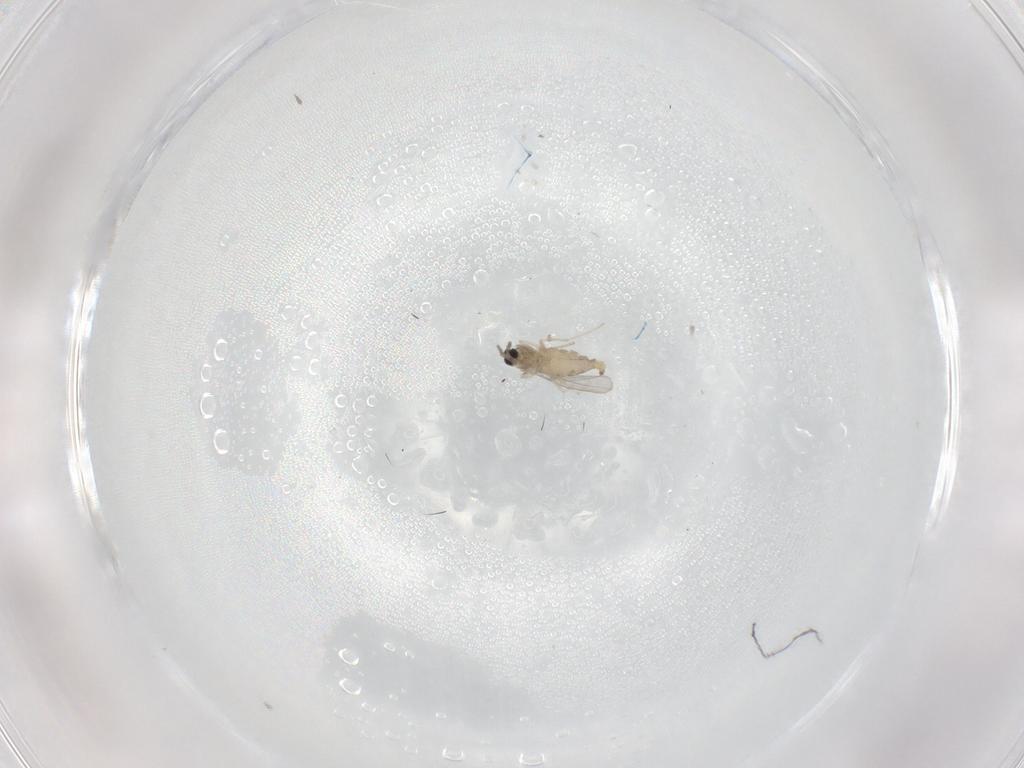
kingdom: Animalia
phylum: Arthropoda
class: Insecta
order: Diptera
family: Cecidomyiidae
